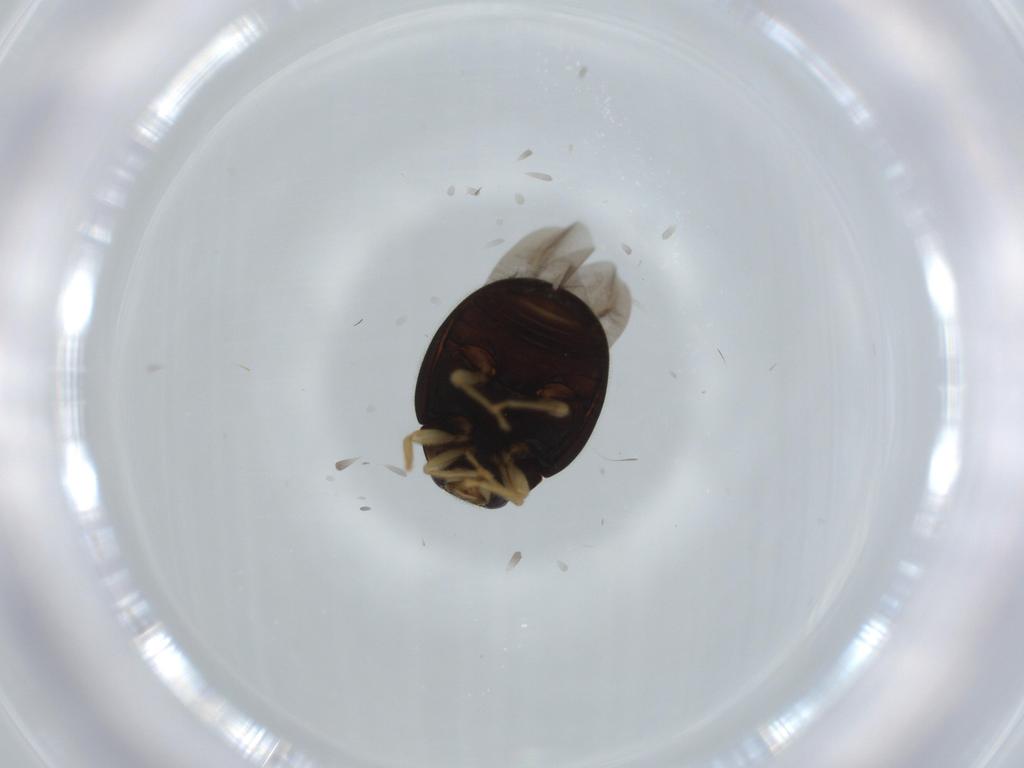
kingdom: Animalia
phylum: Arthropoda
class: Insecta
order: Coleoptera
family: Coccinellidae
